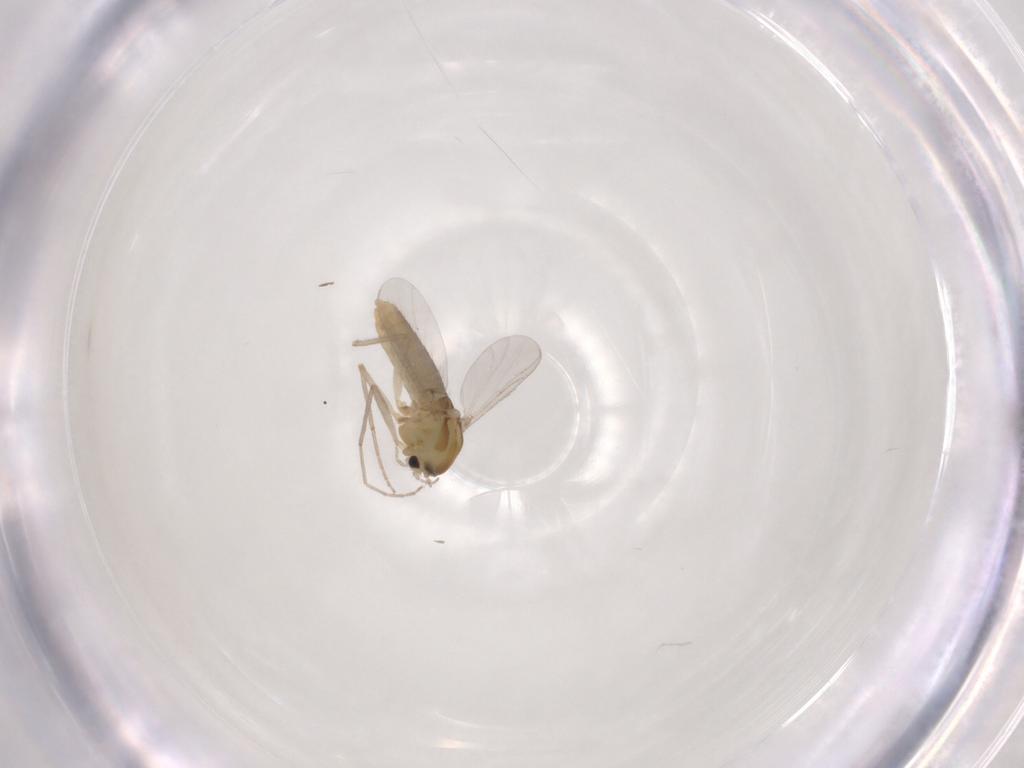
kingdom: Animalia
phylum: Arthropoda
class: Insecta
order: Diptera
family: Chironomidae
